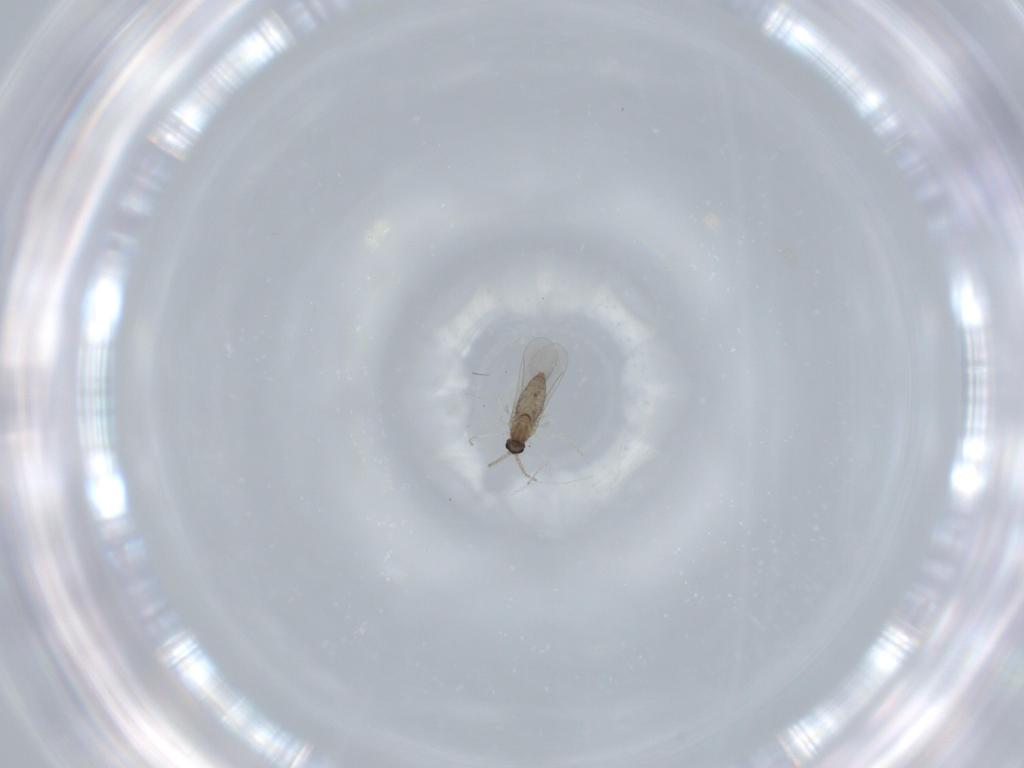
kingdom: Animalia
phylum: Arthropoda
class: Insecta
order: Diptera
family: Cecidomyiidae
